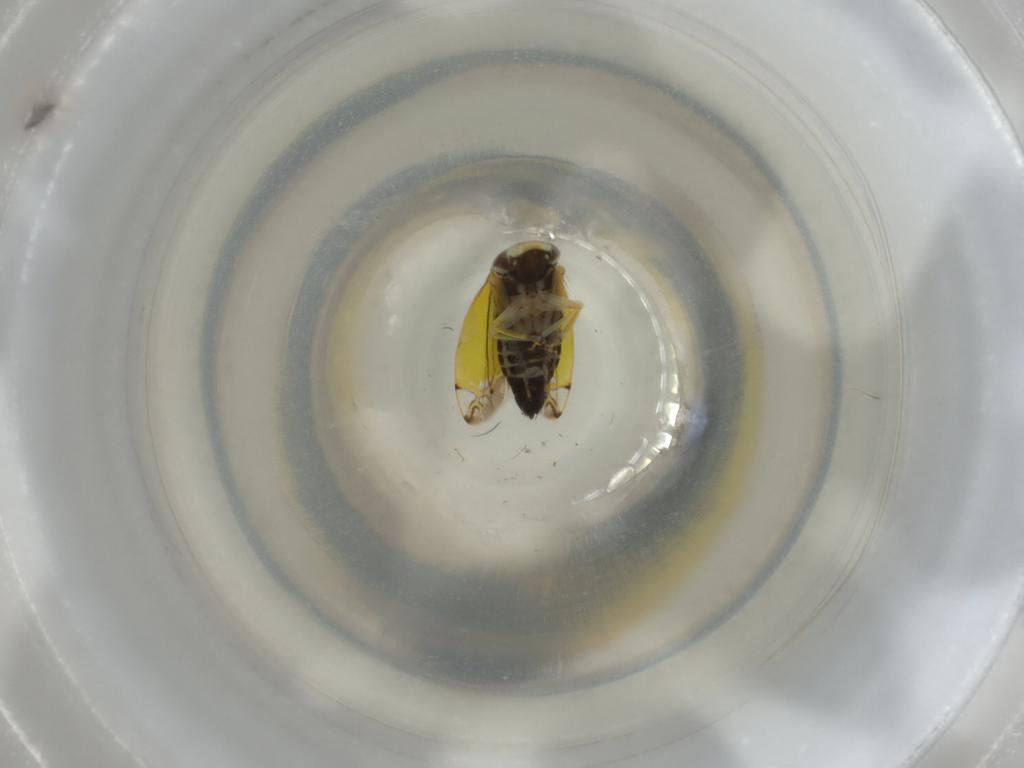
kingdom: Animalia
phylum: Arthropoda
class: Insecta
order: Hemiptera
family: Cicadellidae
